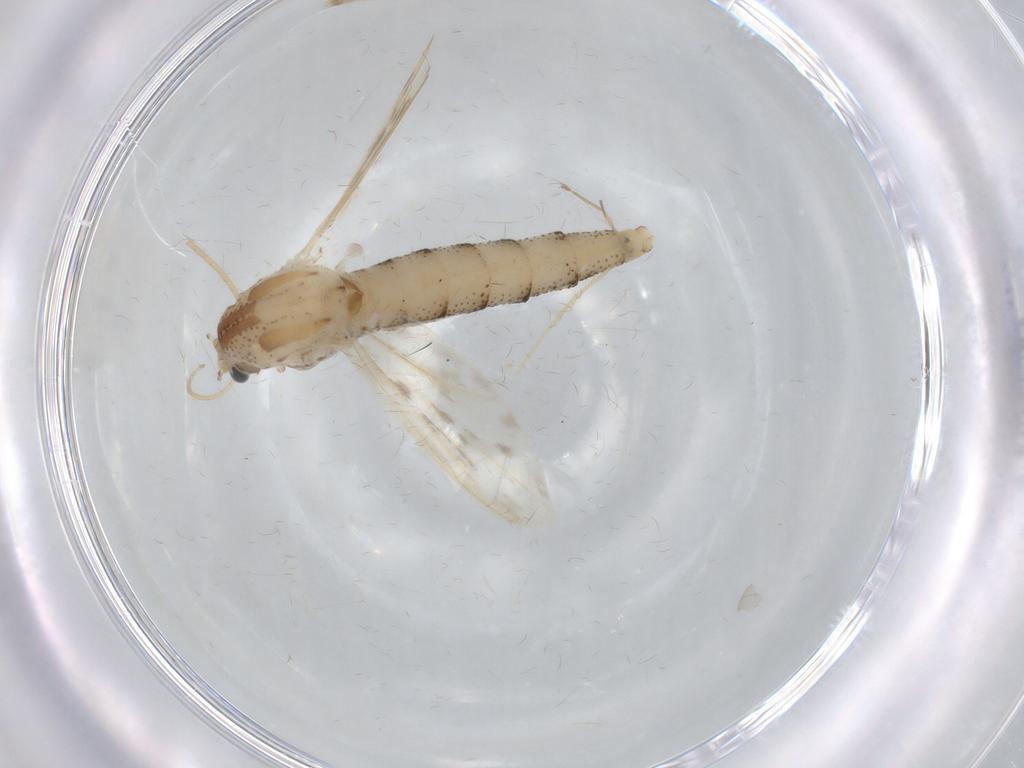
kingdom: Animalia
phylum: Arthropoda
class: Insecta
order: Diptera
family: Chaoboridae
